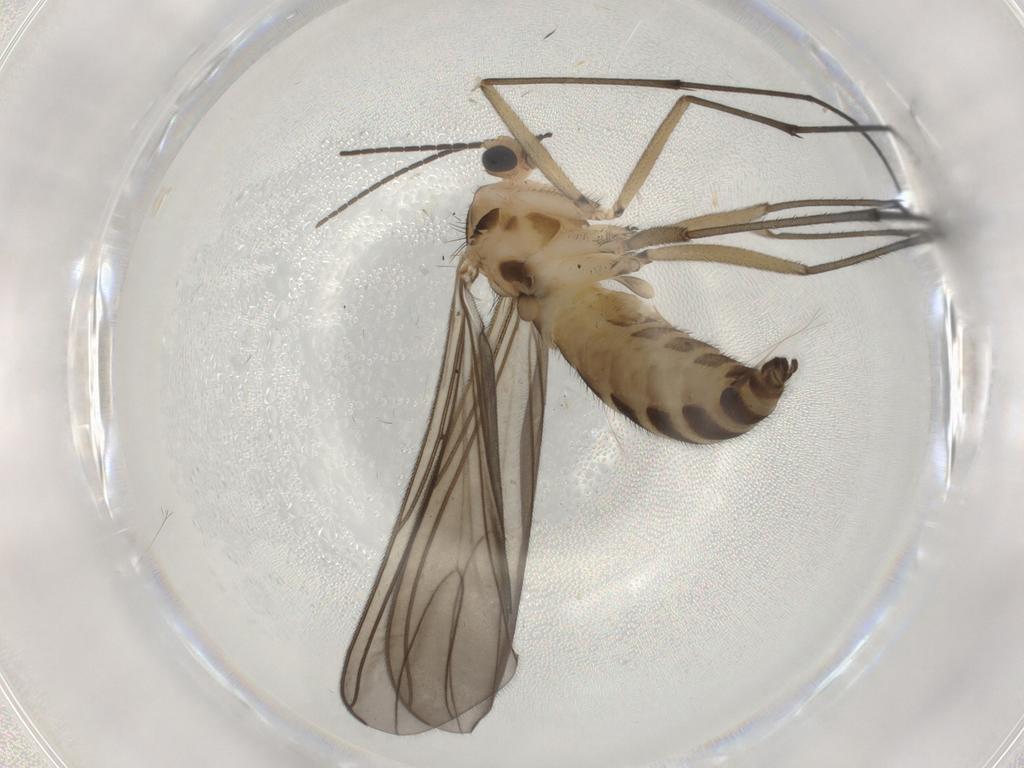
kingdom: Animalia
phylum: Arthropoda
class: Insecta
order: Diptera
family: Sciaridae
